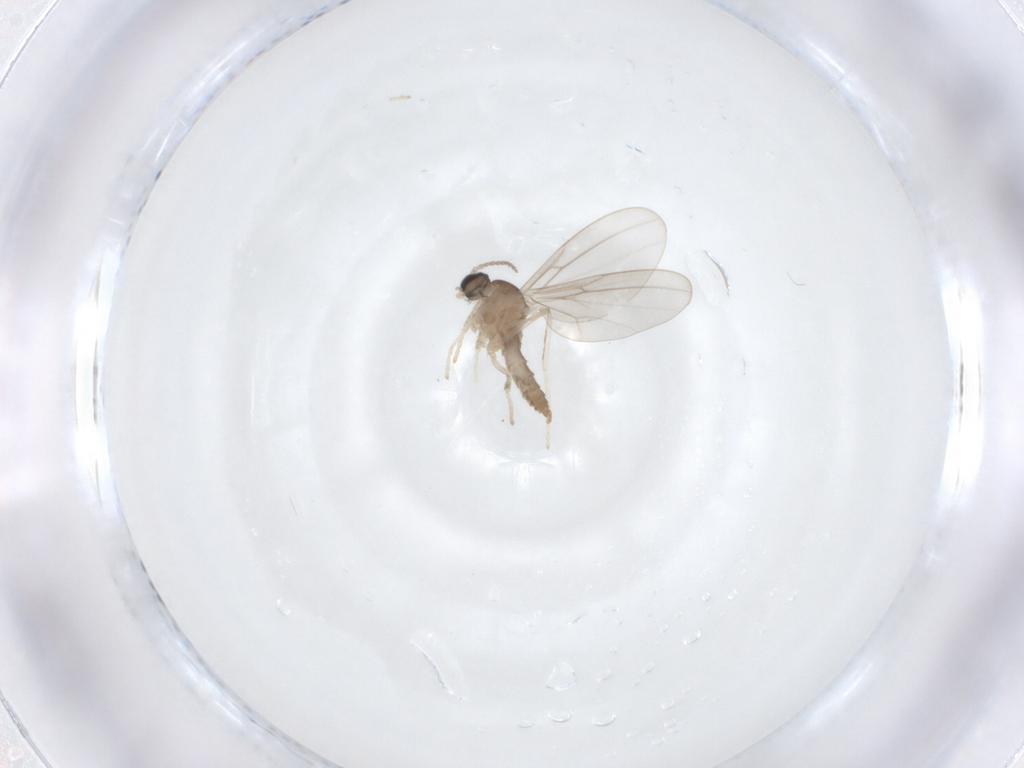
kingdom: Animalia
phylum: Arthropoda
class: Insecta
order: Diptera
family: Cecidomyiidae
